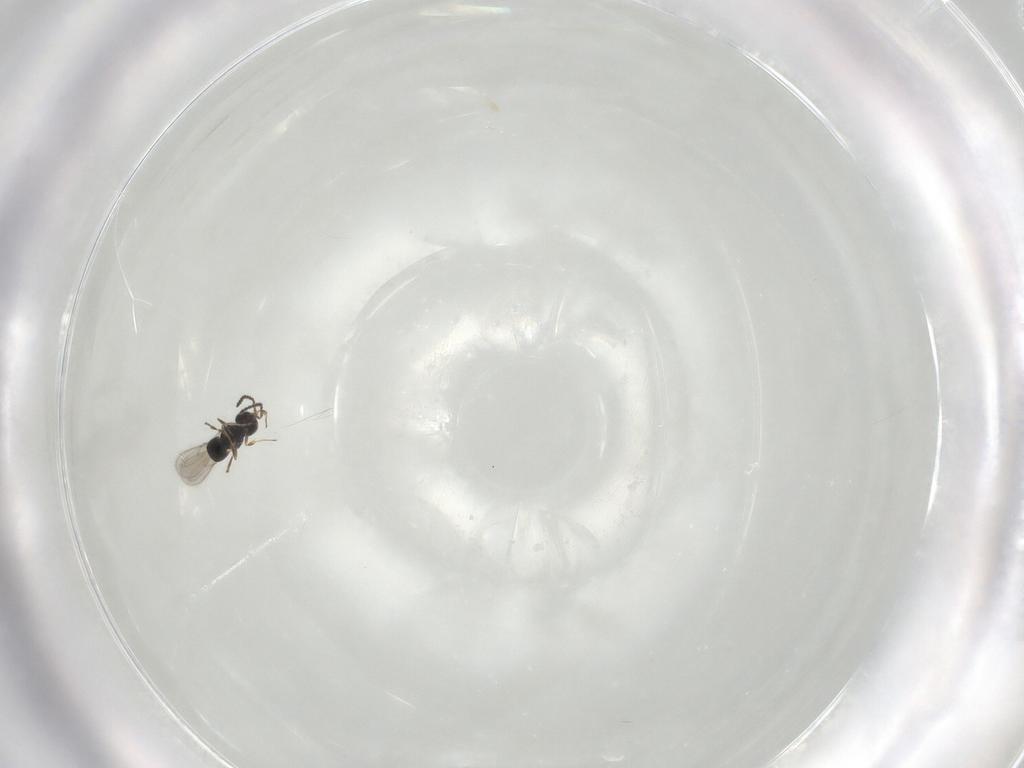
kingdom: Animalia
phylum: Arthropoda
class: Insecta
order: Hymenoptera
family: Scelionidae
